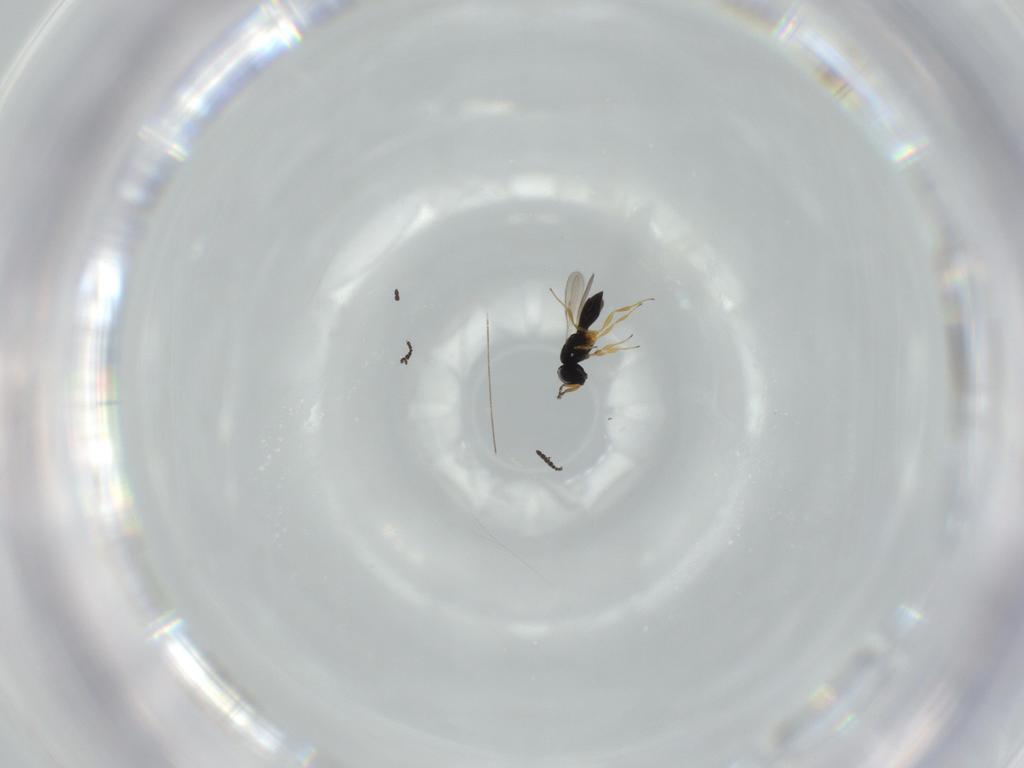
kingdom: Animalia
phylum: Arthropoda
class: Insecta
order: Hymenoptera
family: Scelionidae
